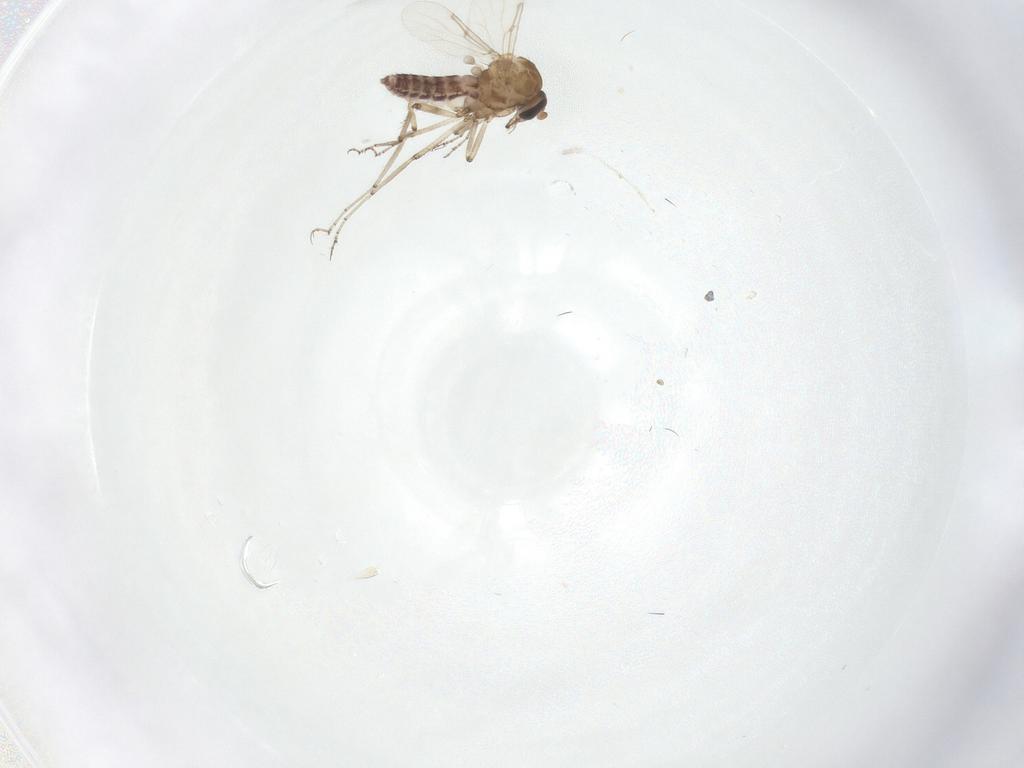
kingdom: Animalia
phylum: Arthropoda
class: Insecta
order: Diptera
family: Ceratopogonidae
